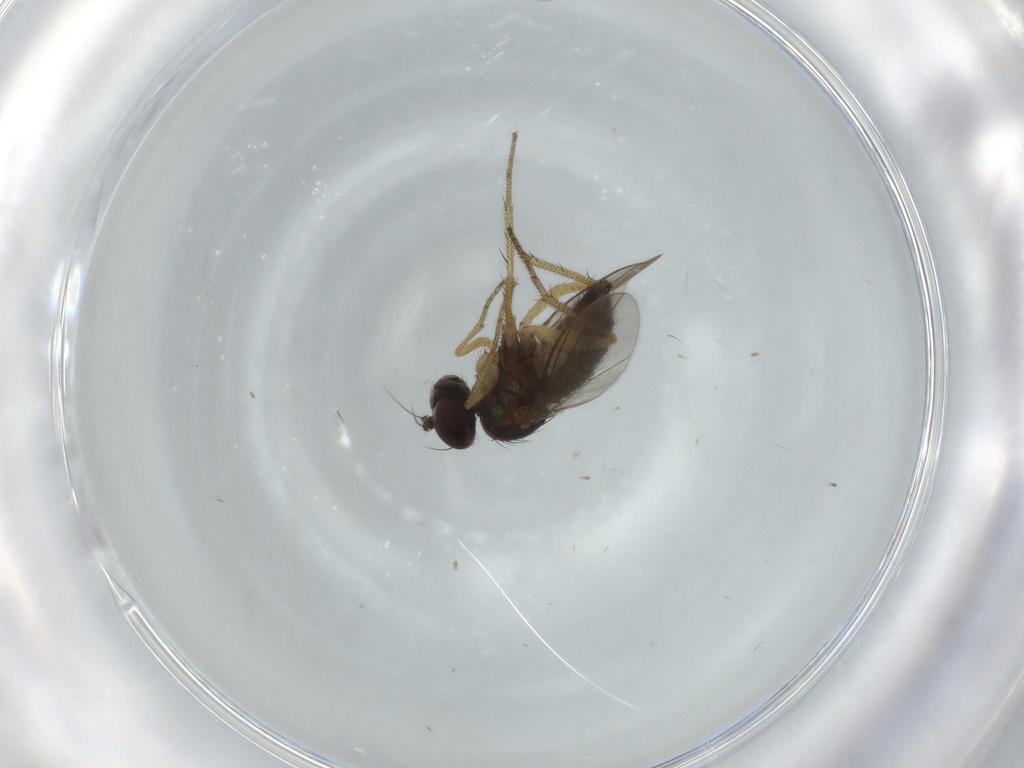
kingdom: Animalia
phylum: Arthropoda
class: Insecta
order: Diptera
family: Dolichopodidae
